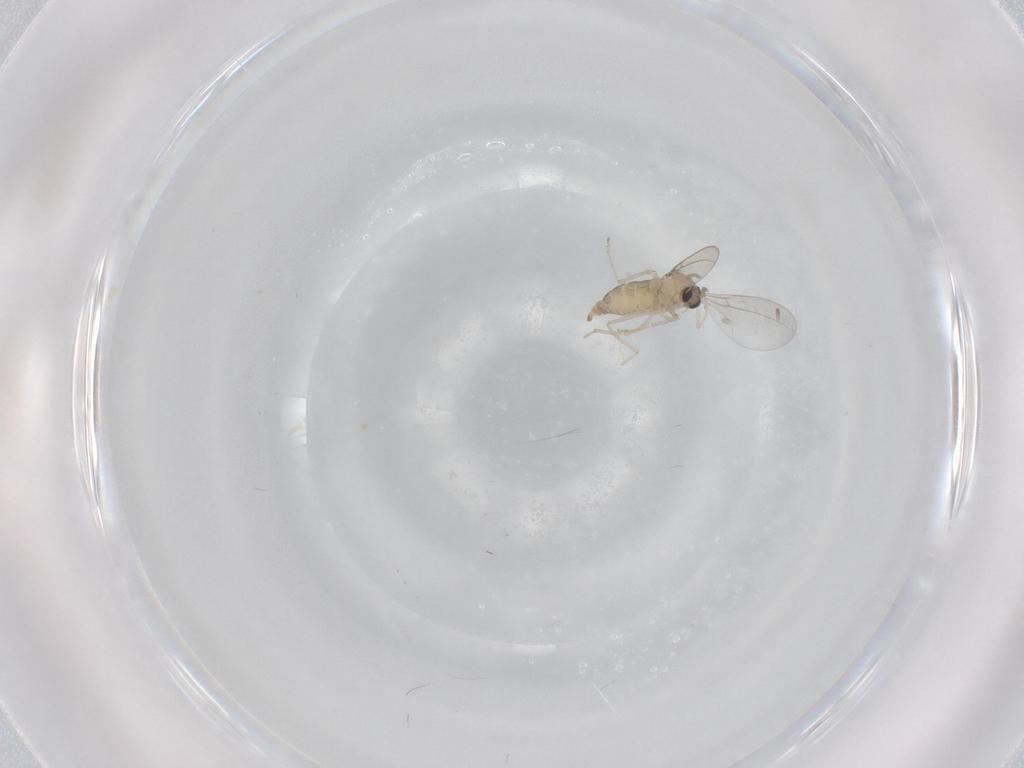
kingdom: Animalia
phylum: Arthropoda
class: Insecta
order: Diptera
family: Cecidomyiidae
